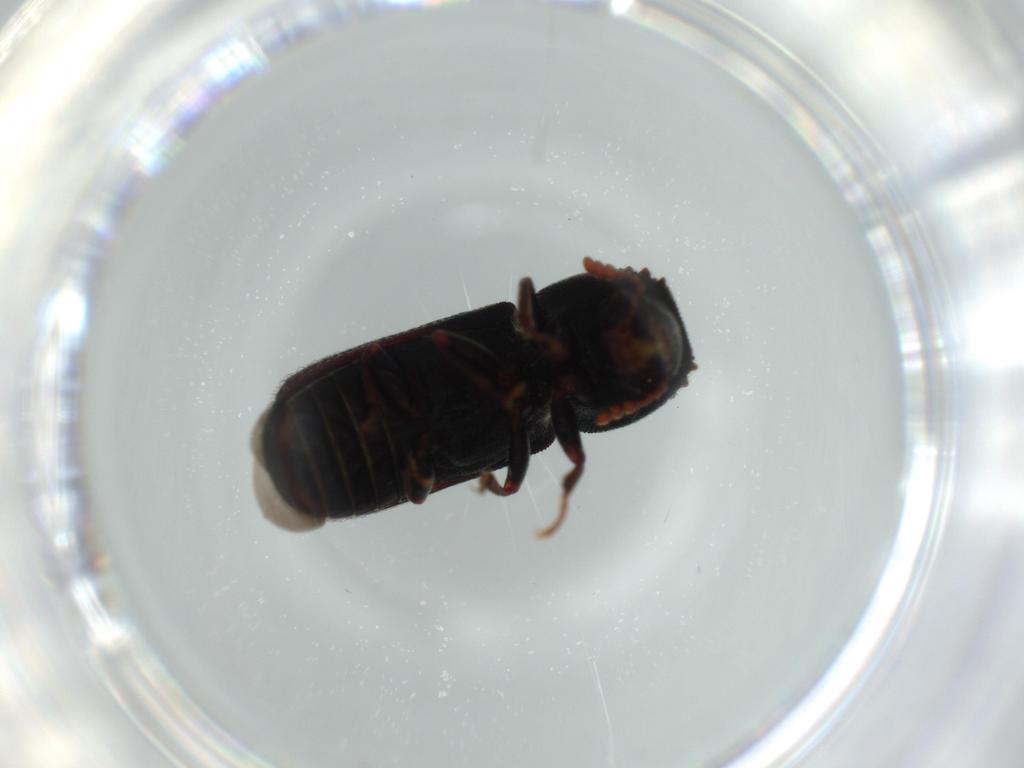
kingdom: Animalia
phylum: Arthropoda
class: Insecta
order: Coleoptera
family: Curculionidae
